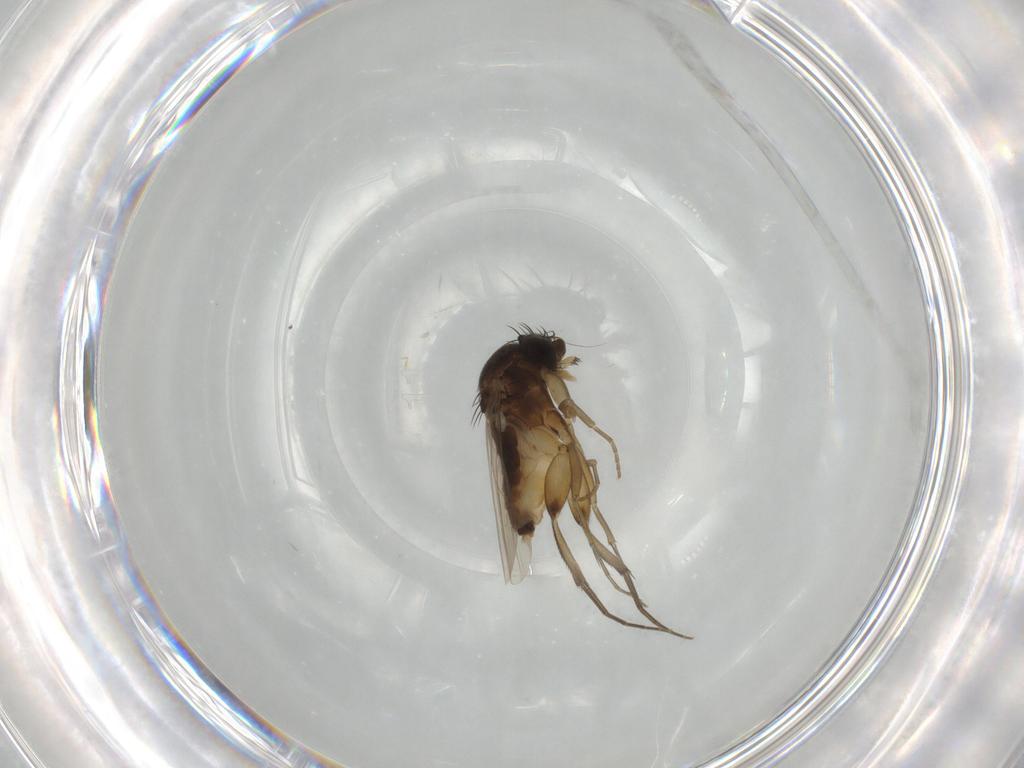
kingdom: Animalia
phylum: Arthropoda
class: Insecta
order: Diptera
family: Phoridae
